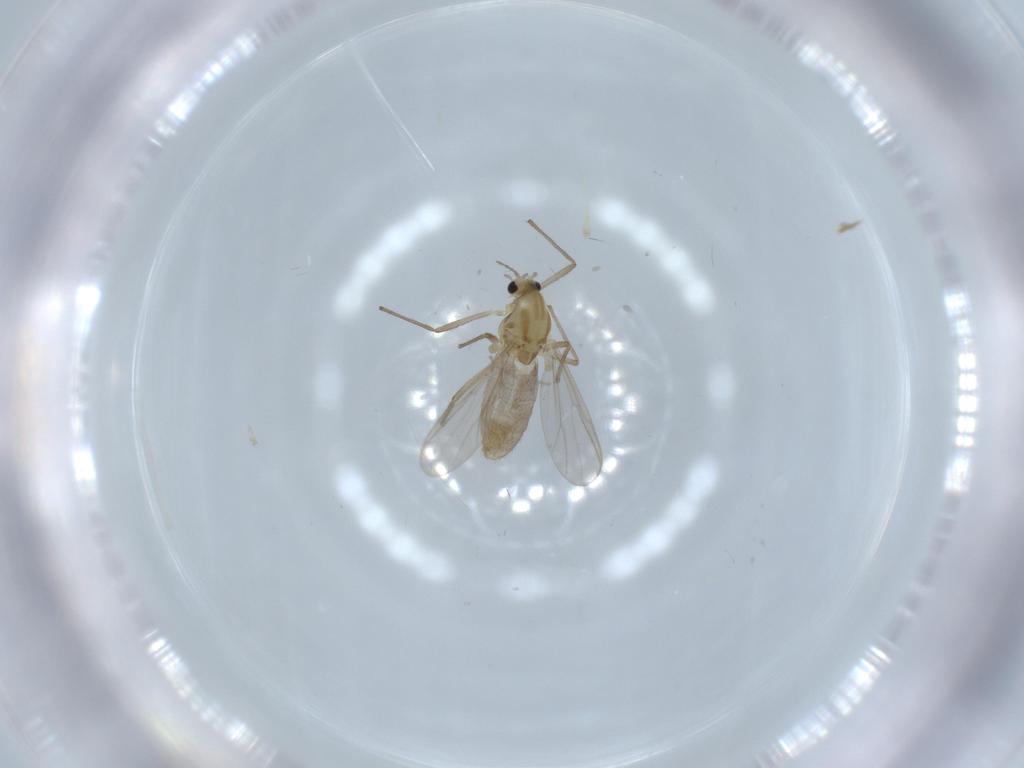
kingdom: Animalia
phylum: Arthropoda
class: Insecta
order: Diptera
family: Chironomidae
